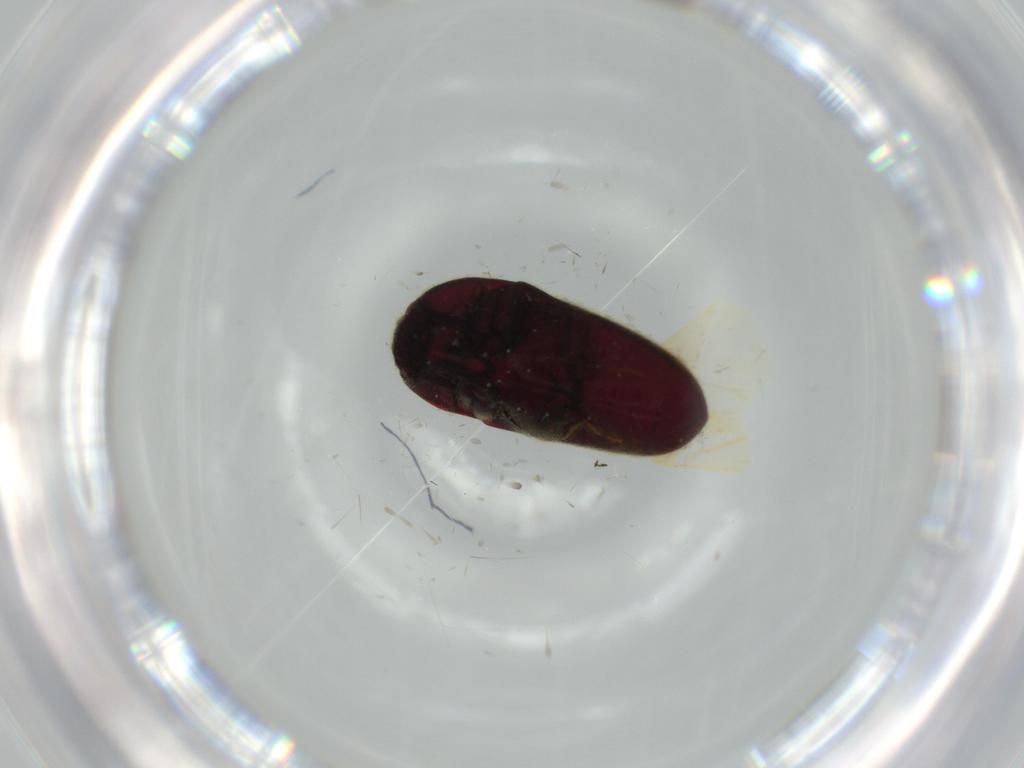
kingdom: Animalia
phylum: Arthropoda
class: Insecta
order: Coleoptera
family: Throscidae
